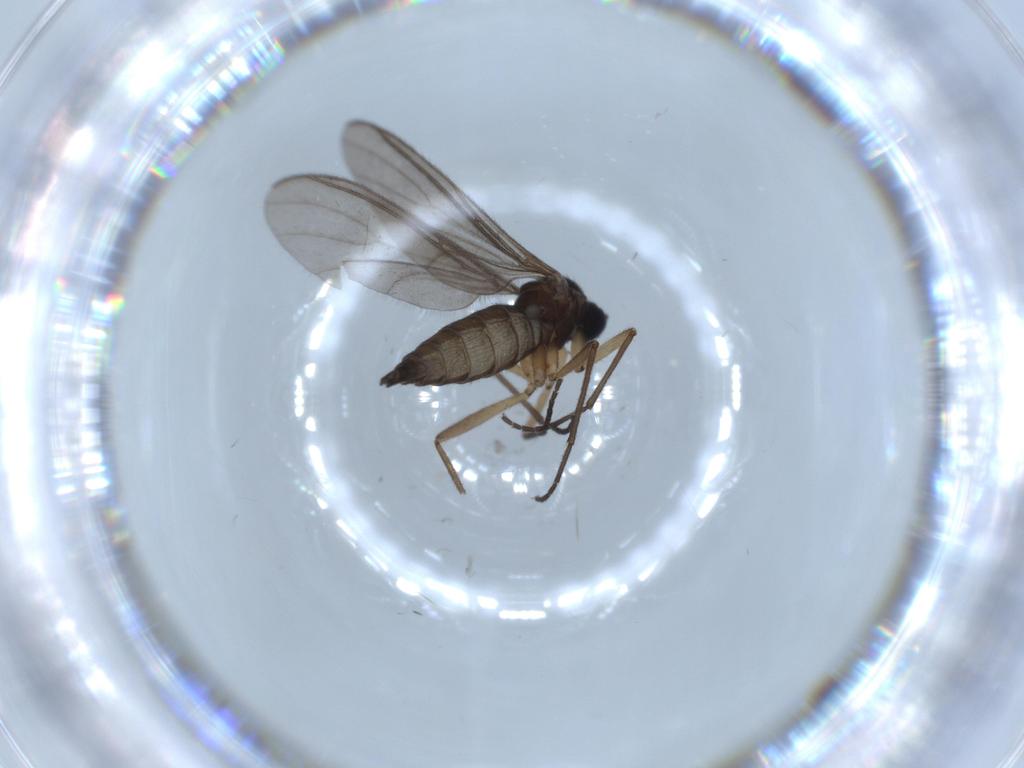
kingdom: Animalia
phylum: Arthropoda
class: Insecta
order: Diptera
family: Sciaridae
